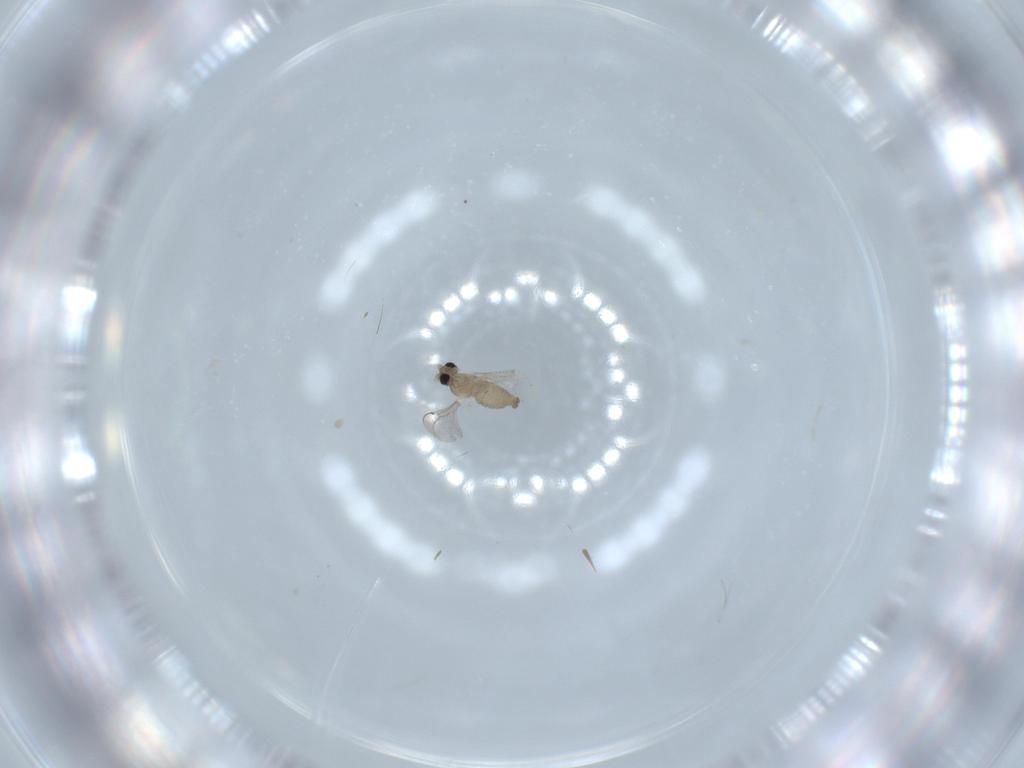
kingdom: Animalia
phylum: Arthropoda
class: Insecta
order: Diptera
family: Cecidomyiidae
